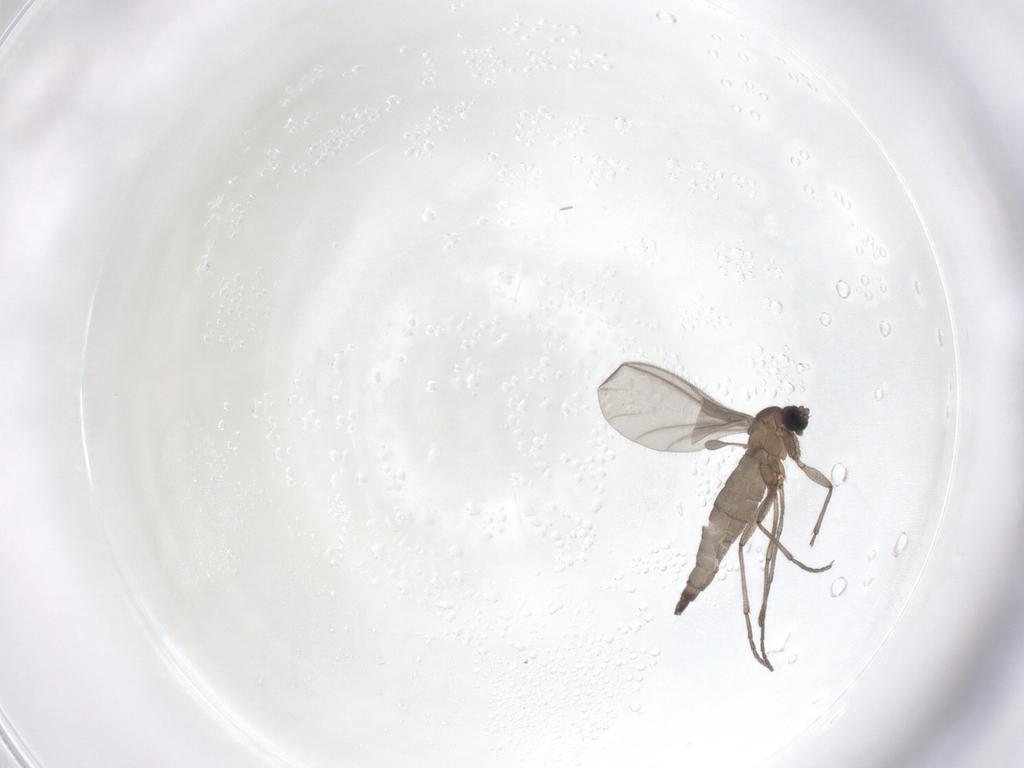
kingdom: Animalia
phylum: Arthropoda
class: Insecta
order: Diptera
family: Sciaridae
